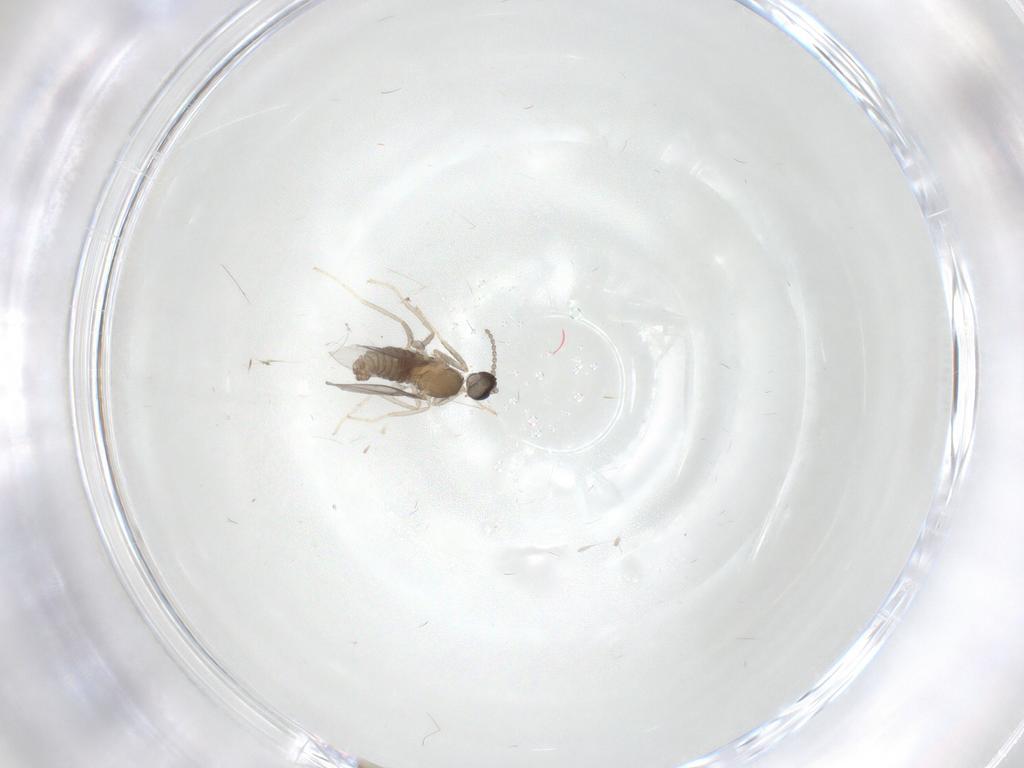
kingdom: Animalia
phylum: Arthropoda
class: Insecta
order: Diptera
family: Cecidomyiidae
